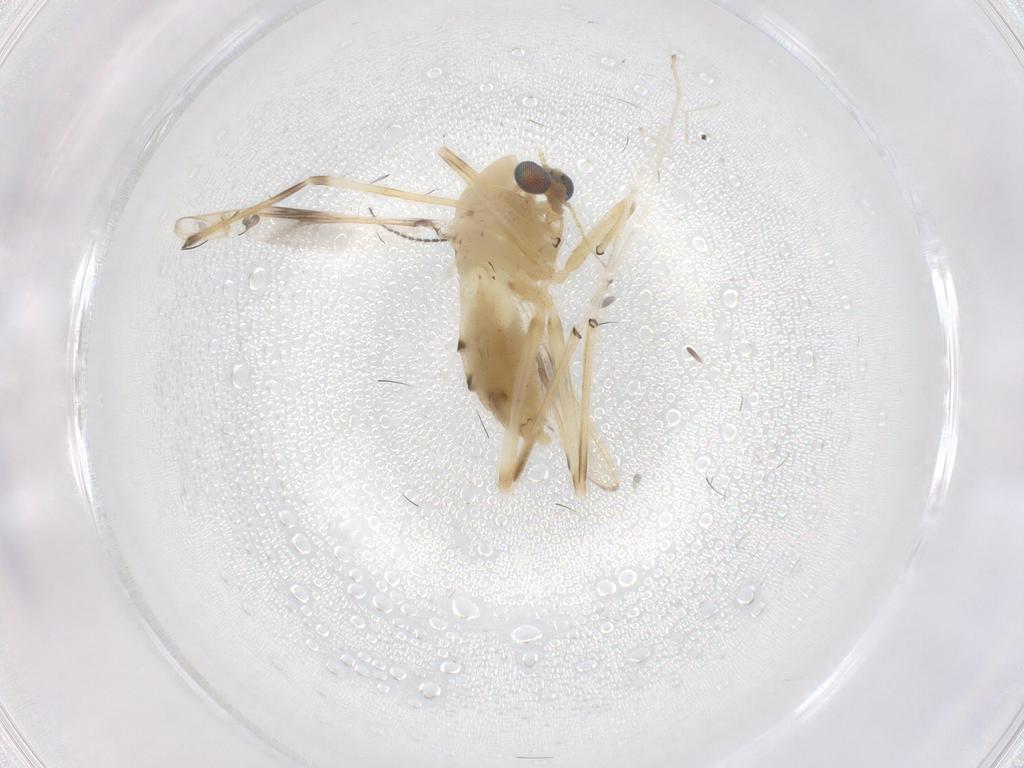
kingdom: Animalia
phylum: Arthropoda
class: Insecta
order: Diptera
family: Chironomidae
